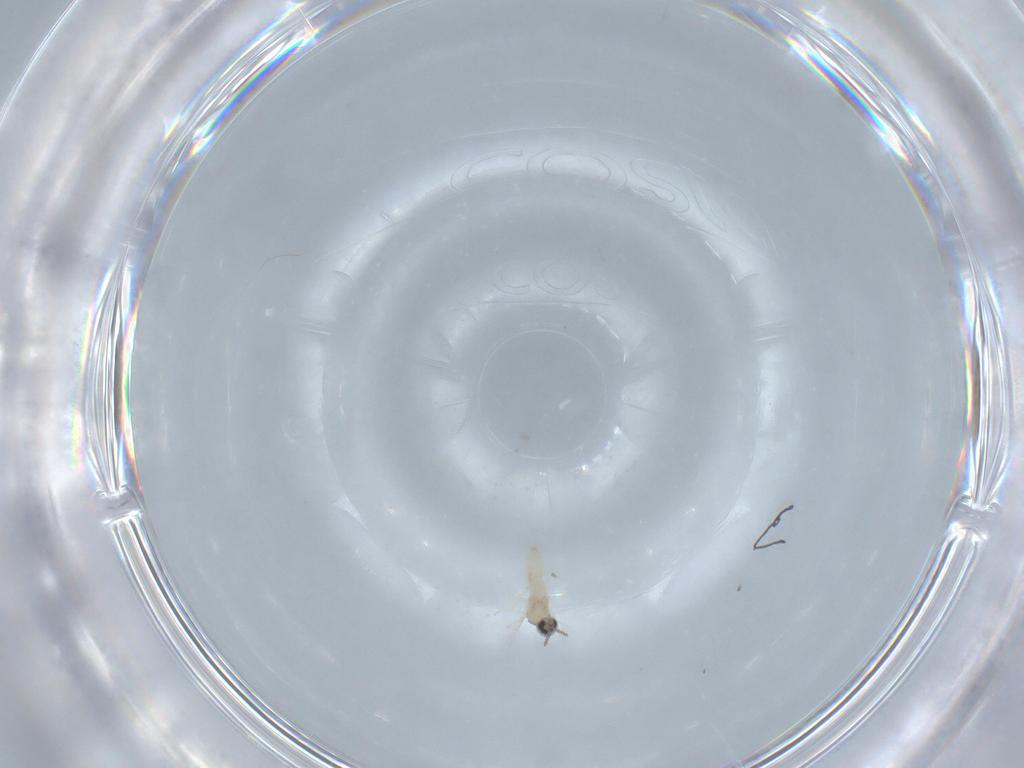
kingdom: Animalia
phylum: Arthropoda
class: Insecta
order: Diptera
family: Cecidomyiidae
